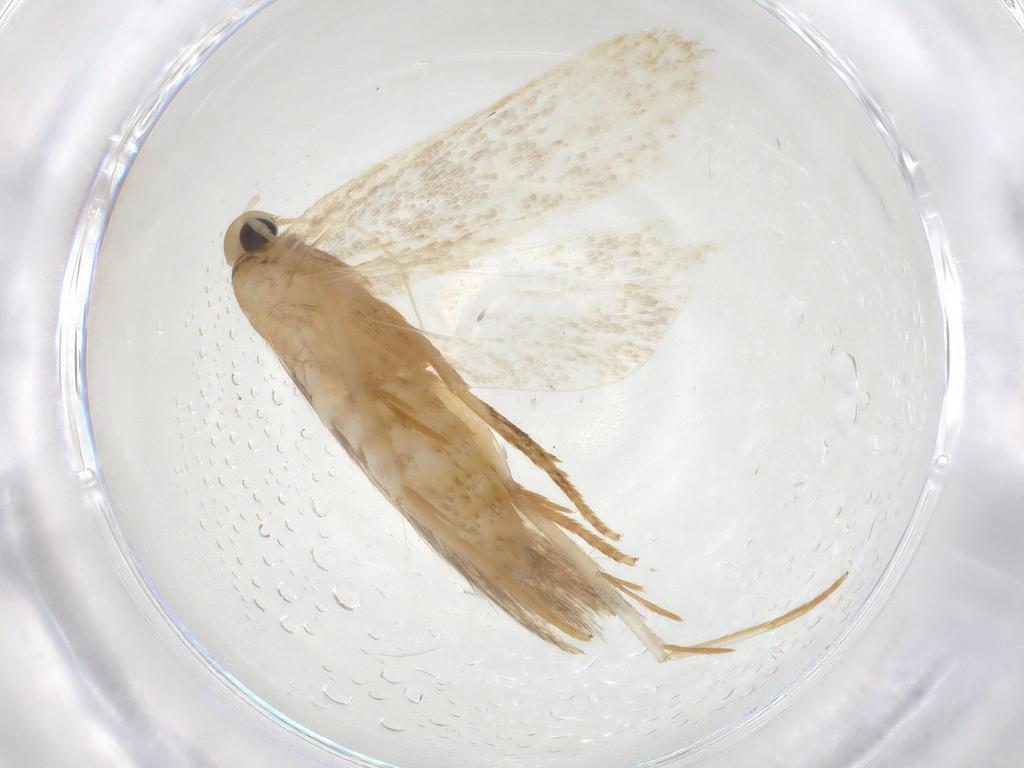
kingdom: Animalia
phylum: Arthropoda
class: Insecta
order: Lepidoptera
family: Gelechiidae
